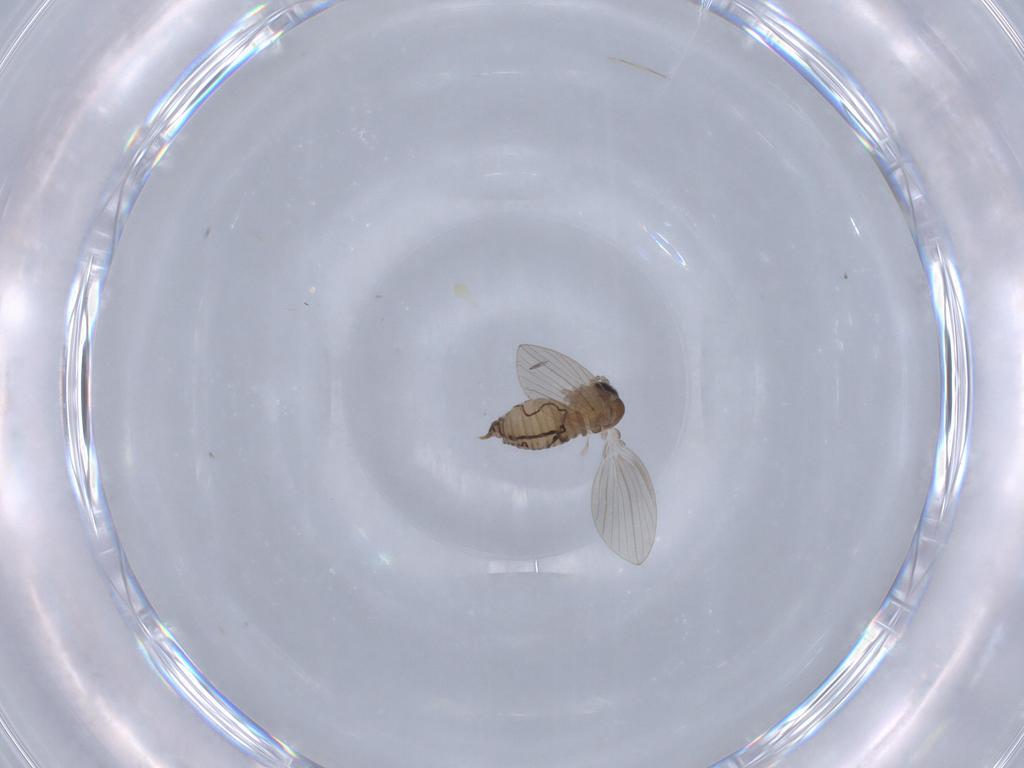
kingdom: Animalia
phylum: Arthropoda
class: Insecta
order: Diptera
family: Psychodidae
